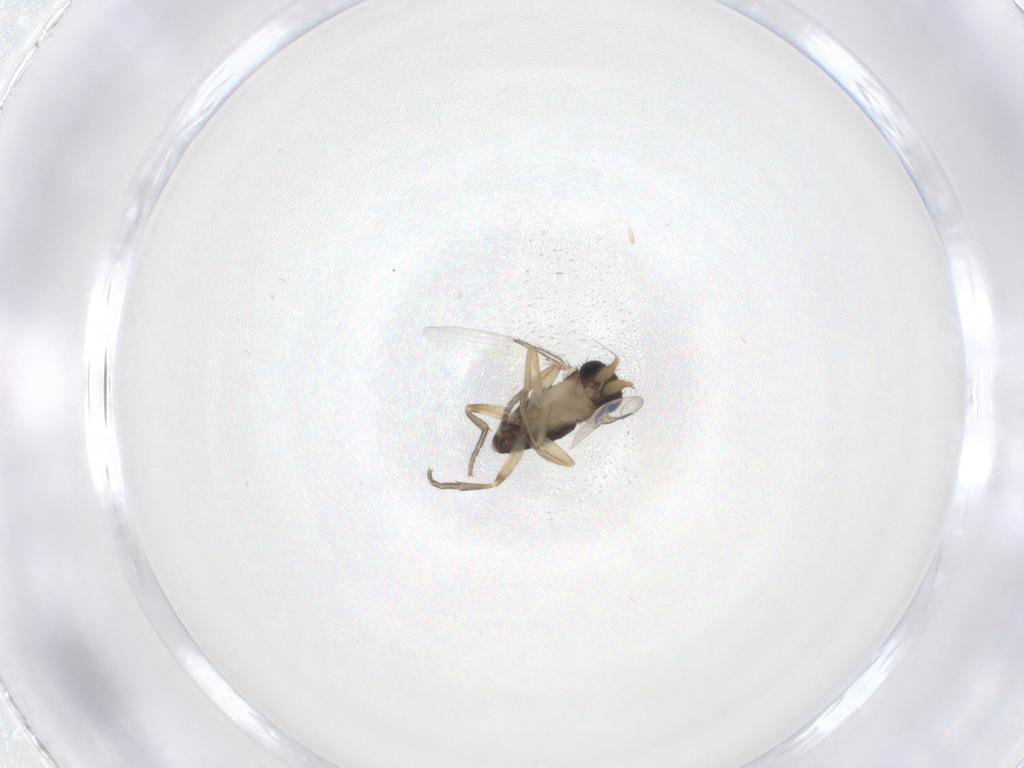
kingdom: Animalia
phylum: Arthropoda
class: Insecta
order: Diptera
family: Phoridae
